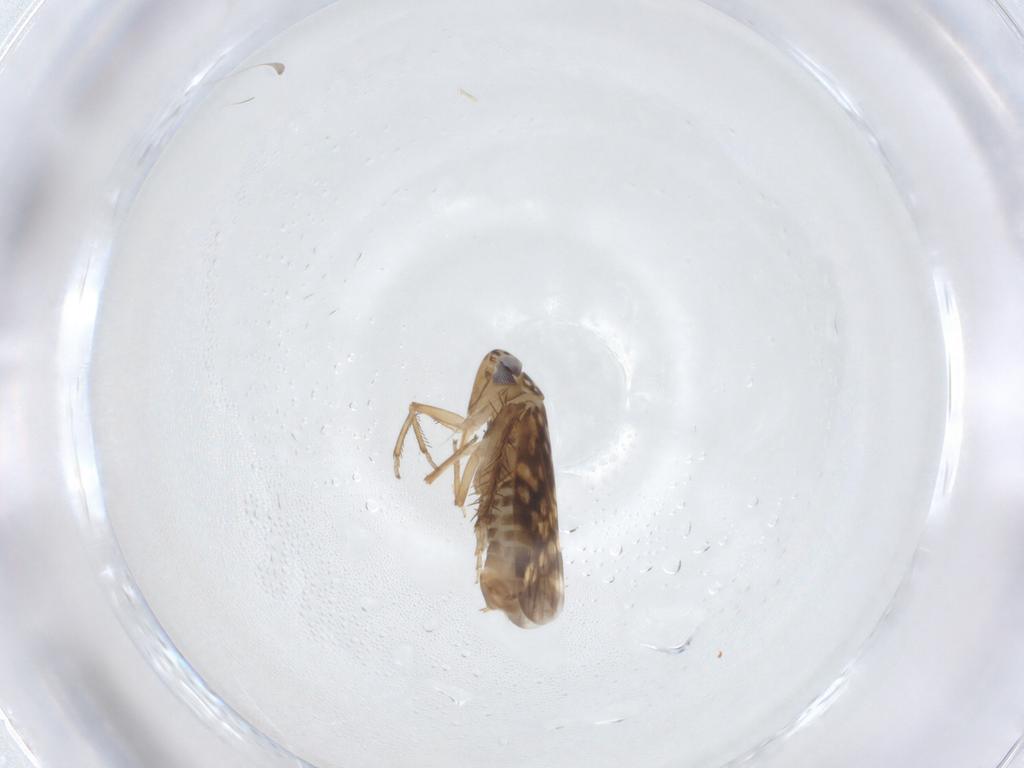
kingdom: Animalia
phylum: Arthropoda
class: Insecta
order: Hemiptera
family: Cicadellidae
